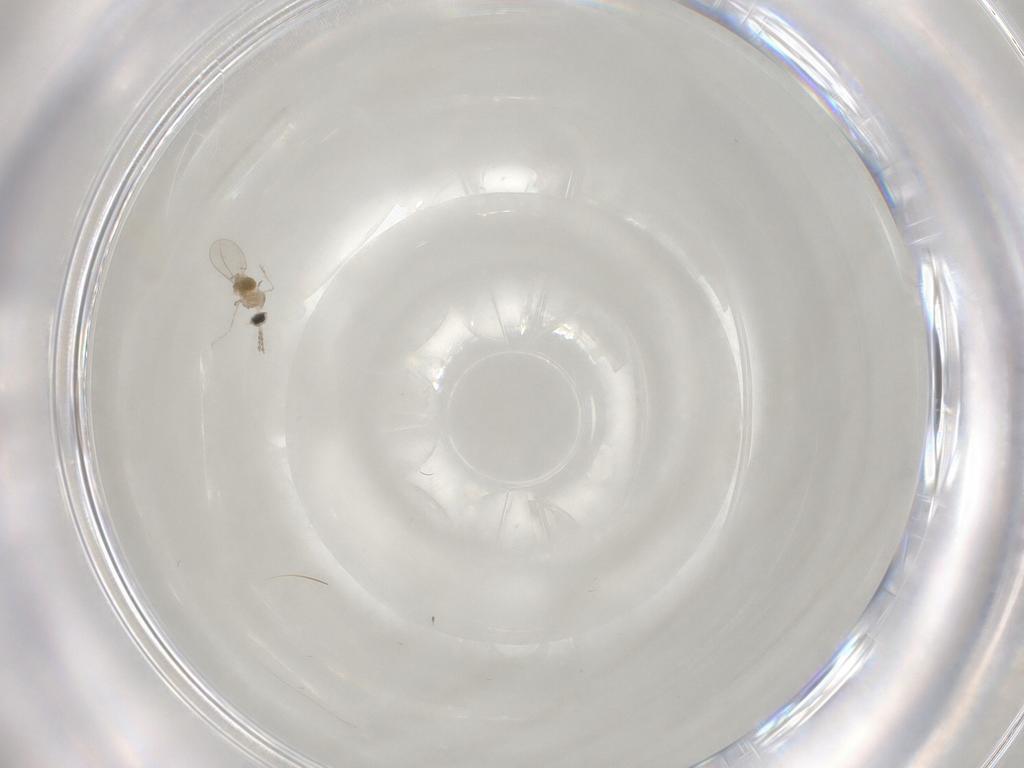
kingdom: Animalia
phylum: Arthropoda
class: Insecta
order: Diptera
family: Cecidomyiidae
